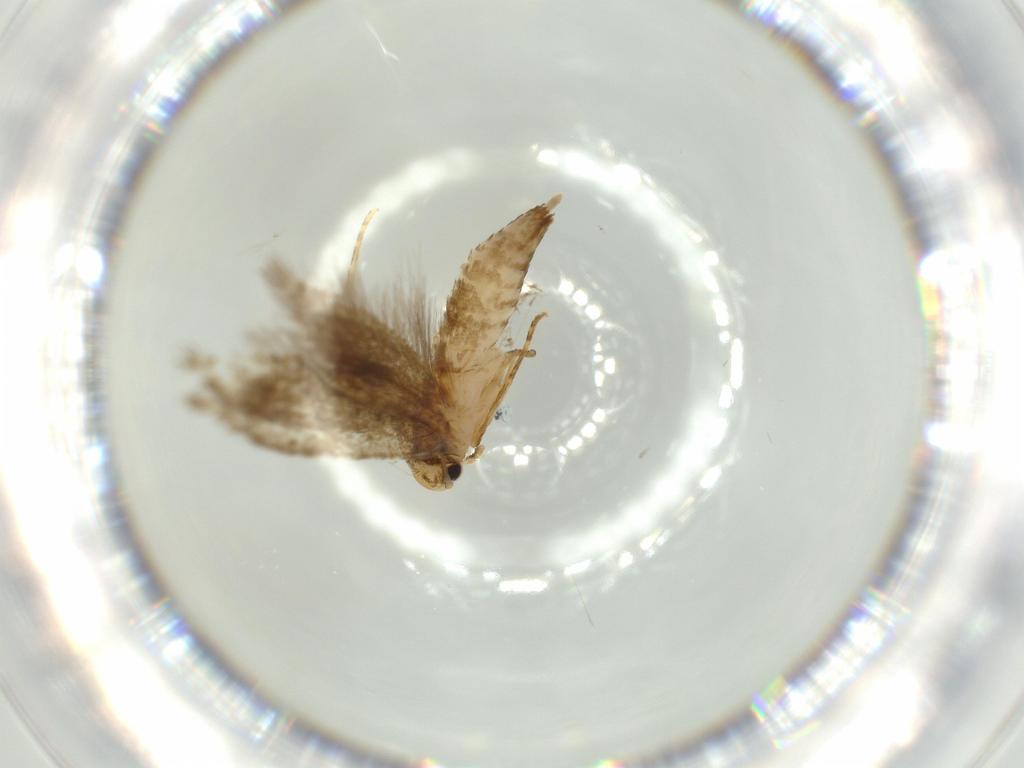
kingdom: Animalia
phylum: Arthropoda
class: Insecta
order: Lepidoptera
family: Tineidae
